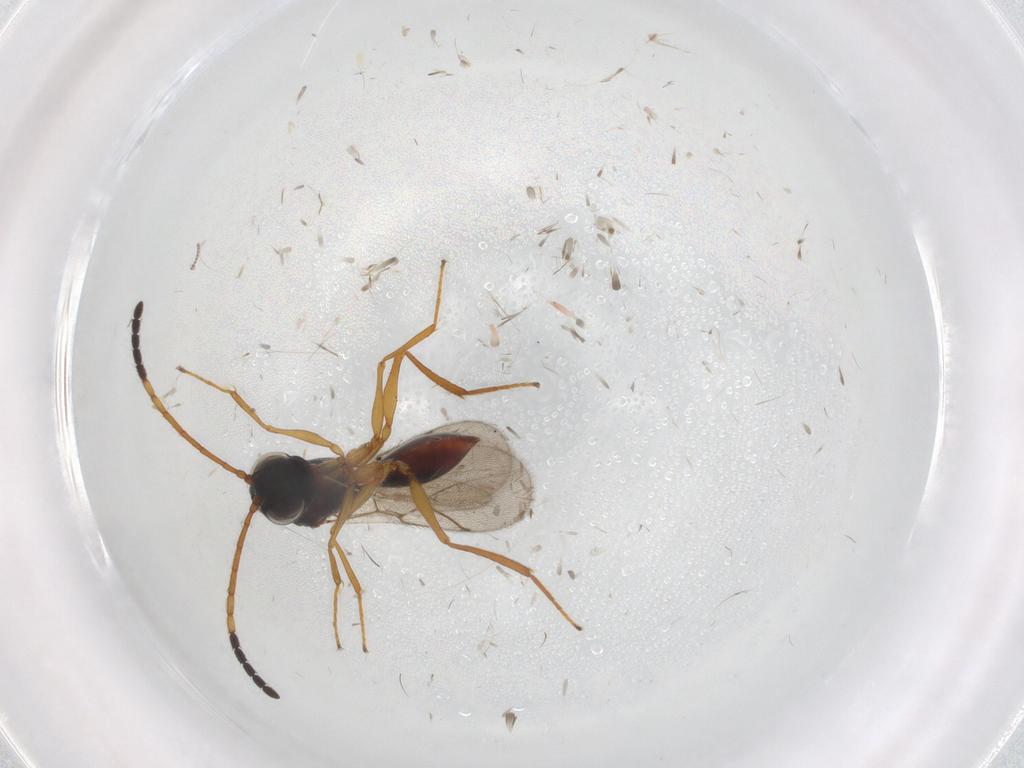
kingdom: Animalia
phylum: Arthropoda
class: Insecta
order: Hymenoptera
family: Figitidae
